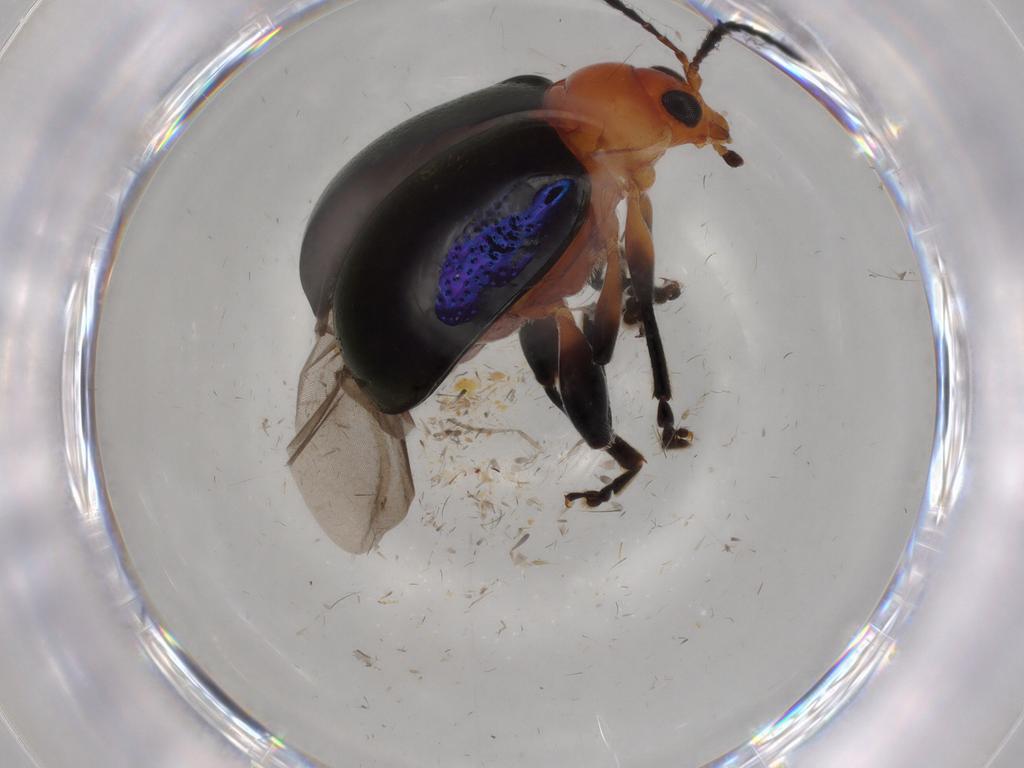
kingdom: Animalia
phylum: Arthropoda
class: Insecta
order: Coleoptera
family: Chrysomelidae
